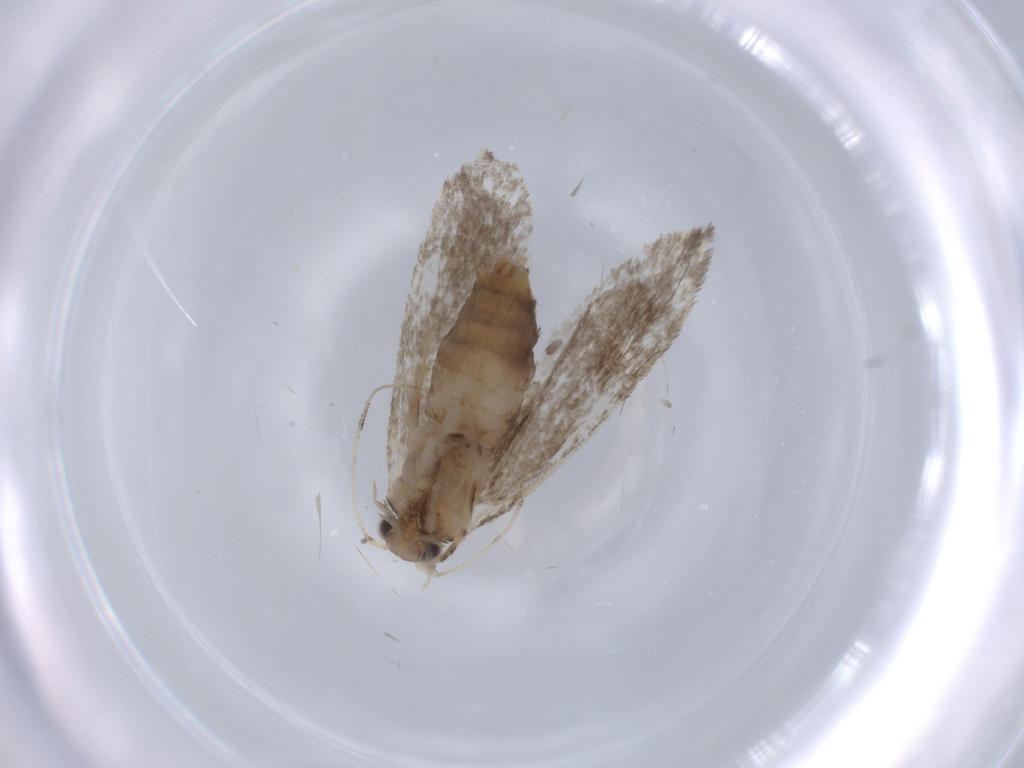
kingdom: Animalia
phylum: Arthropoda
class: Insecta
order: Lepidoptera
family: Tineidae
